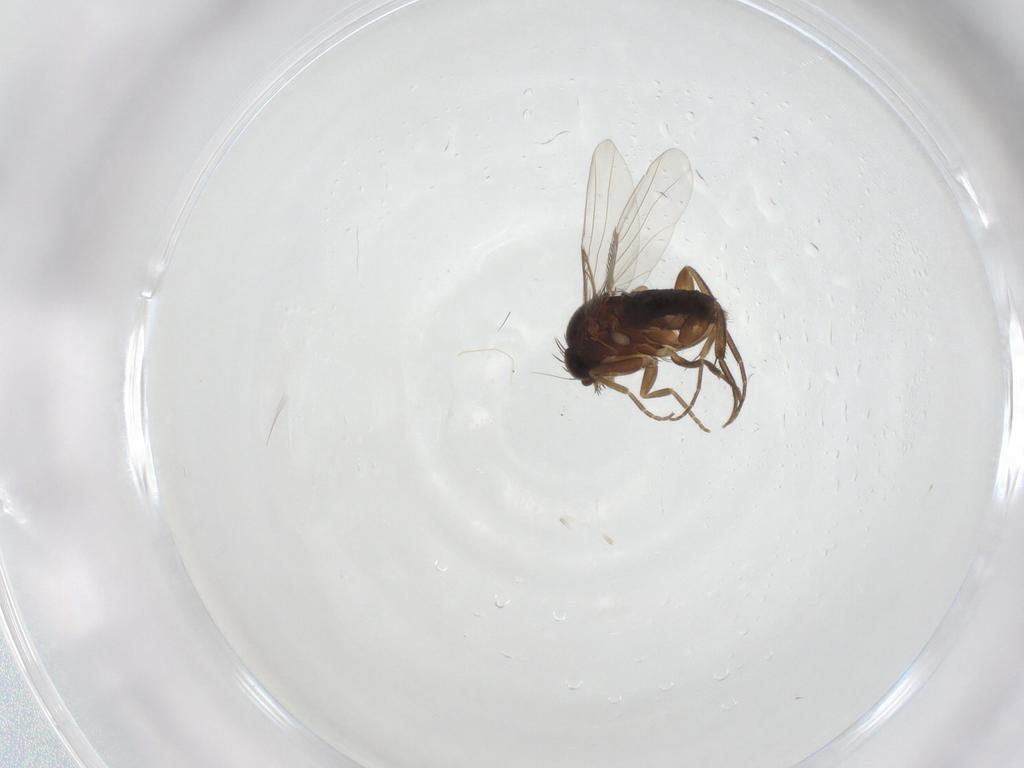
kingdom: Animalia
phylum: Arthropoda
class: Insecta
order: Diptera
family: Phoridae
